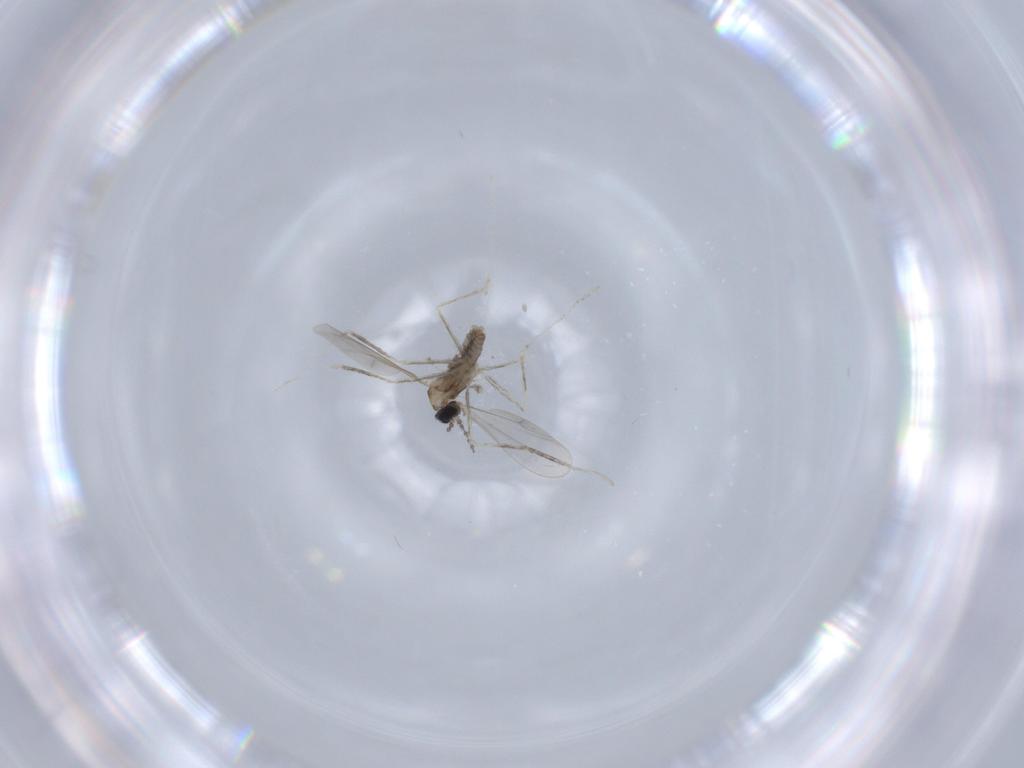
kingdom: Animalia
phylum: Arthropoda
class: Insecta
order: Diptera
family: Cecidomyiidae
